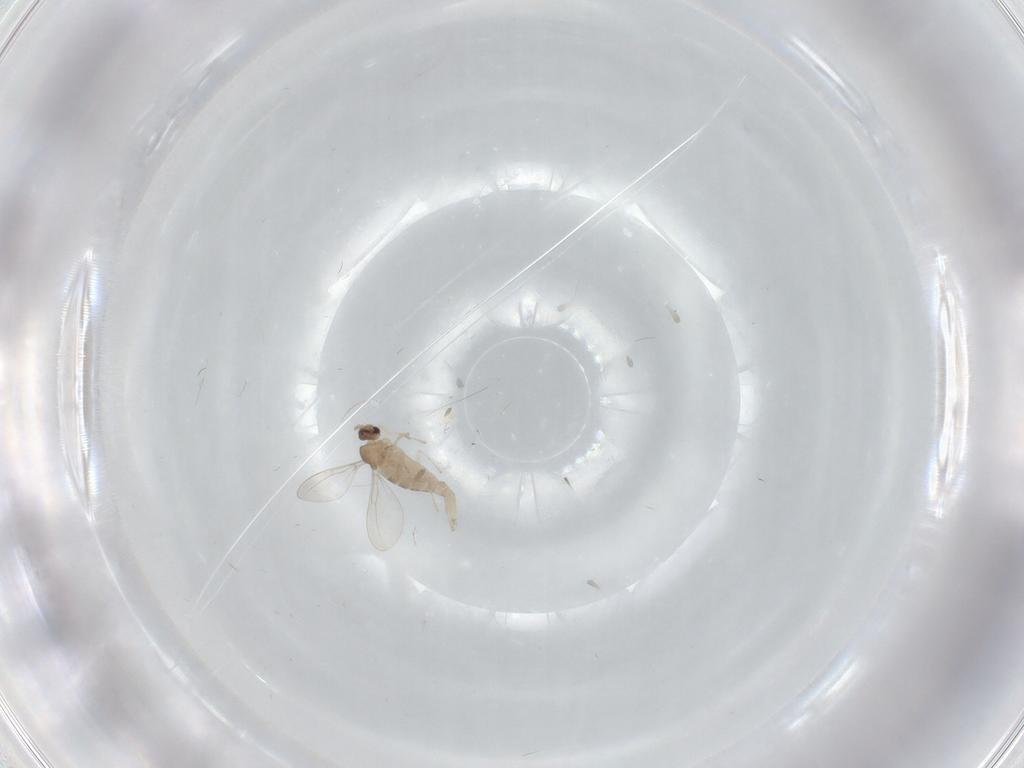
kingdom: Animalia
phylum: Arthropoda
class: Insecta
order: Diptera
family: Cecidomyiidae
